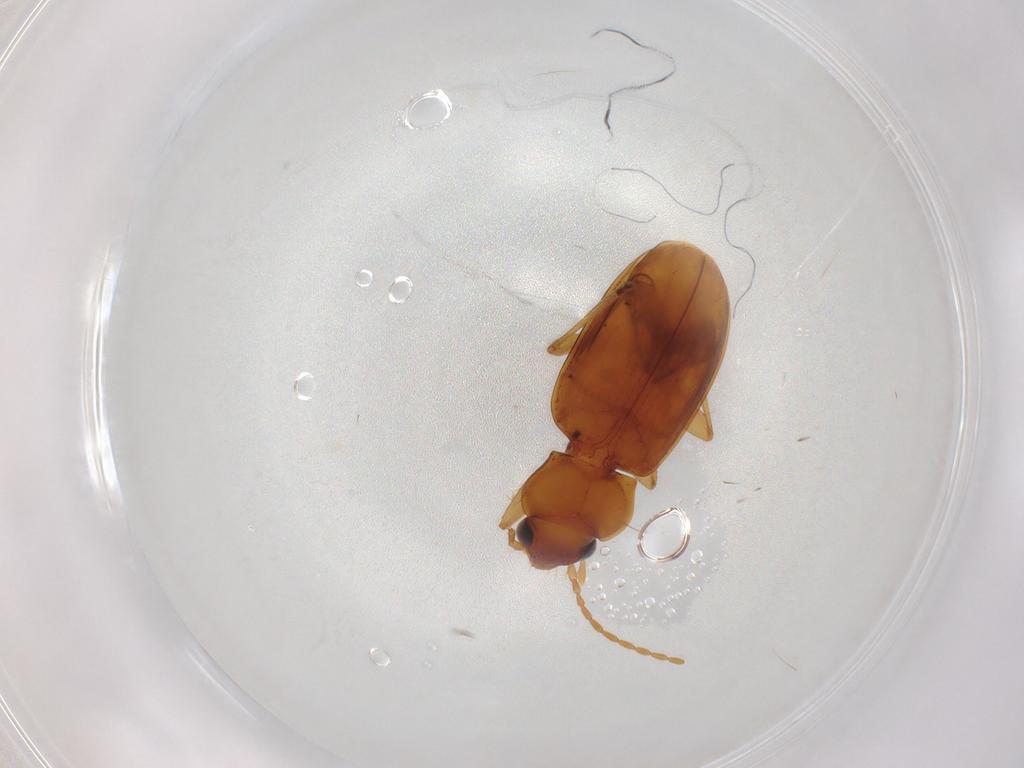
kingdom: Animalia
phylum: Arthropoda
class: Insecta
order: Coleoptera
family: Carabidae
